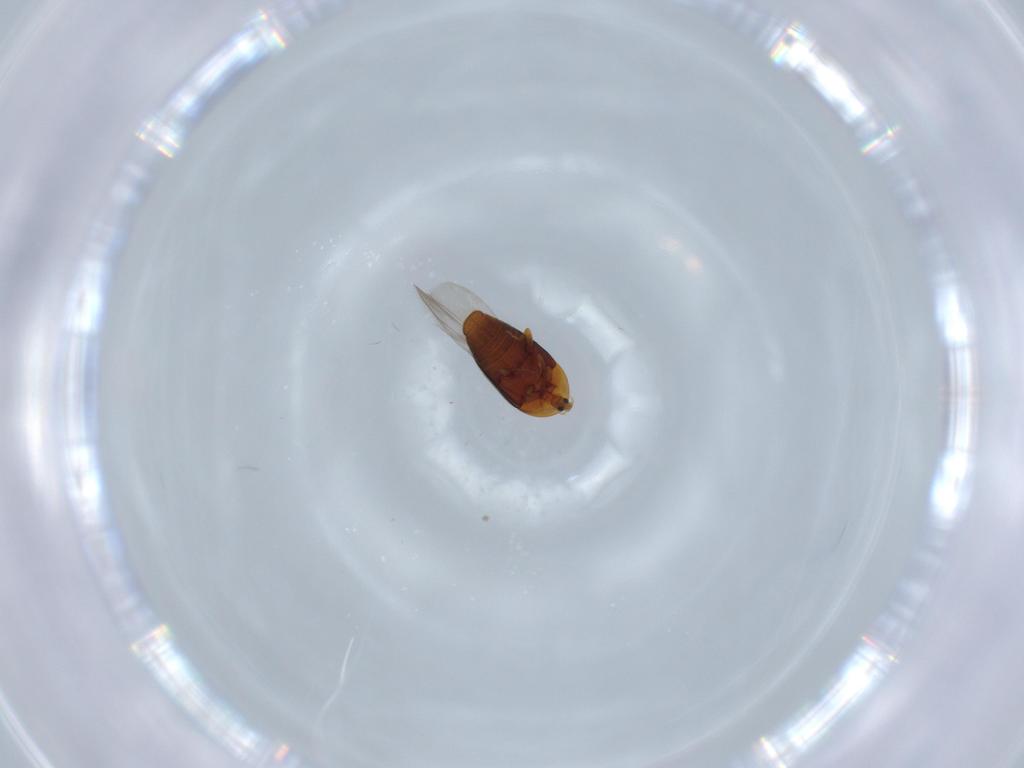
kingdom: Animalia
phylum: Arthropoda
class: Insecta
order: Coleoptera
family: Corylophidae
